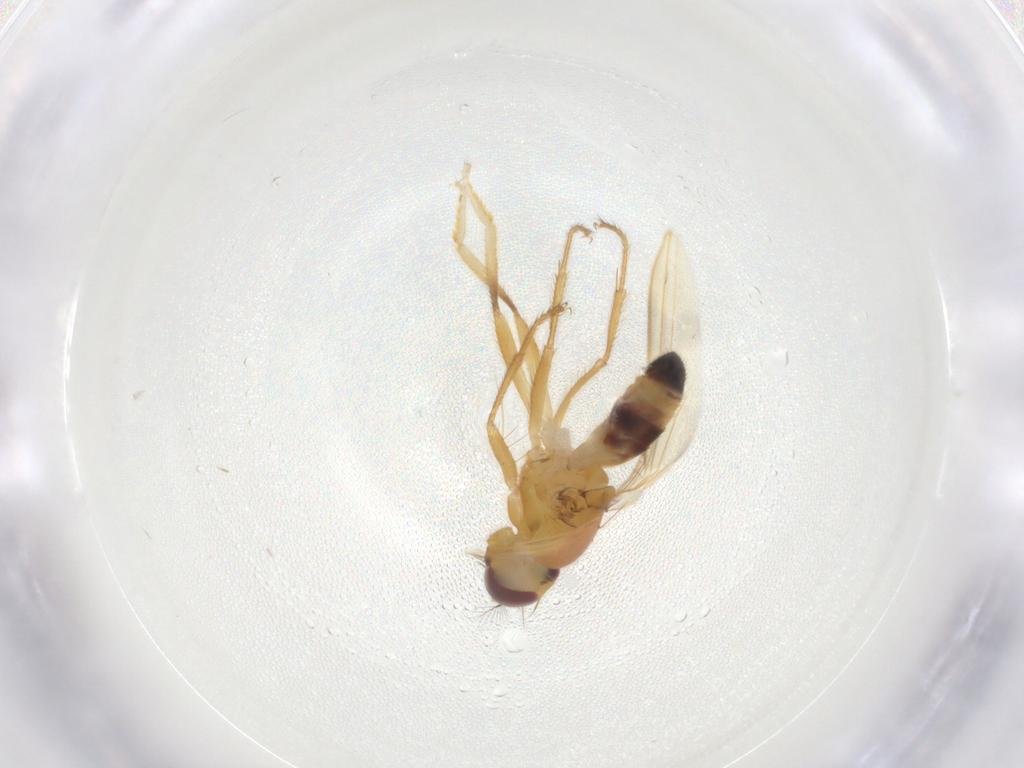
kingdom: Animalia
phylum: Arthropoda
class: Insecta
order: Diptera
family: Periscelididae
